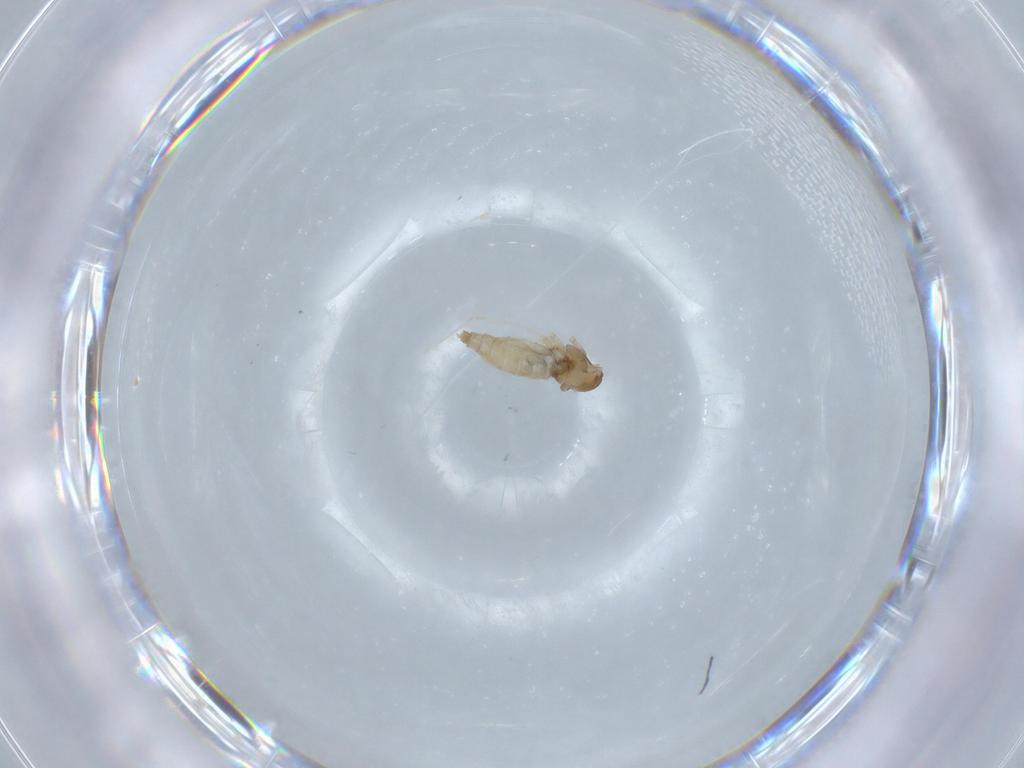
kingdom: Animalia
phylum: Arthropoda
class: Insecta
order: Diptera
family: Cecidomyiidae
